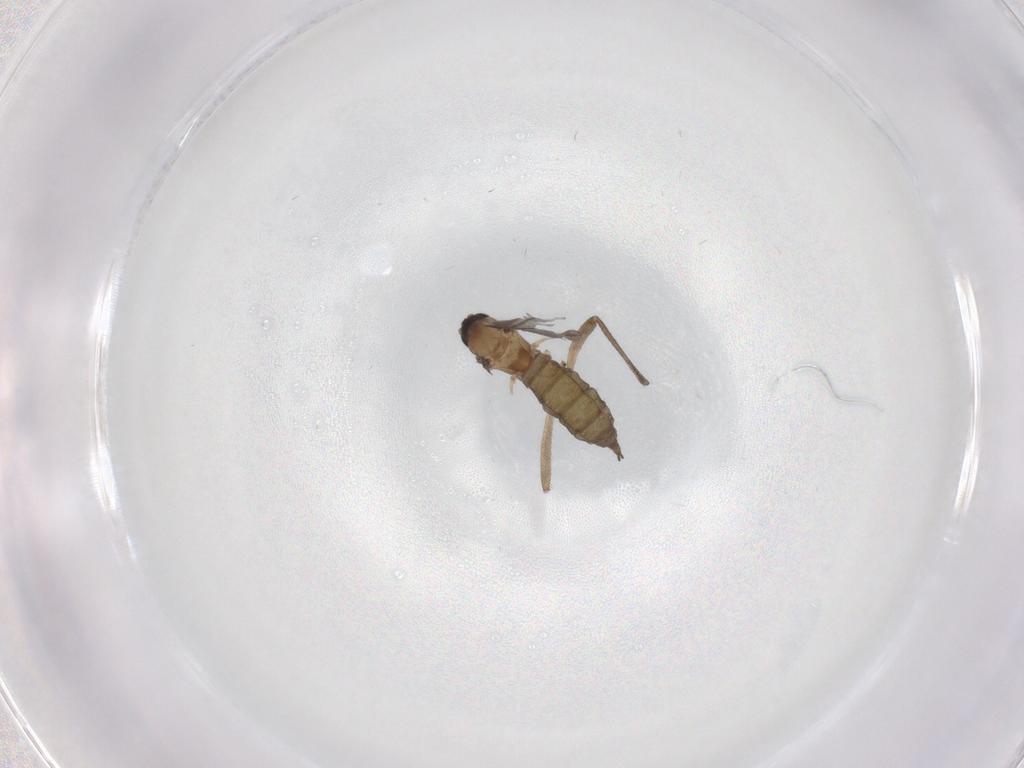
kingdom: Animalia
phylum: Arthropoda
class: Insecta
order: Diptera
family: Sciaridae
